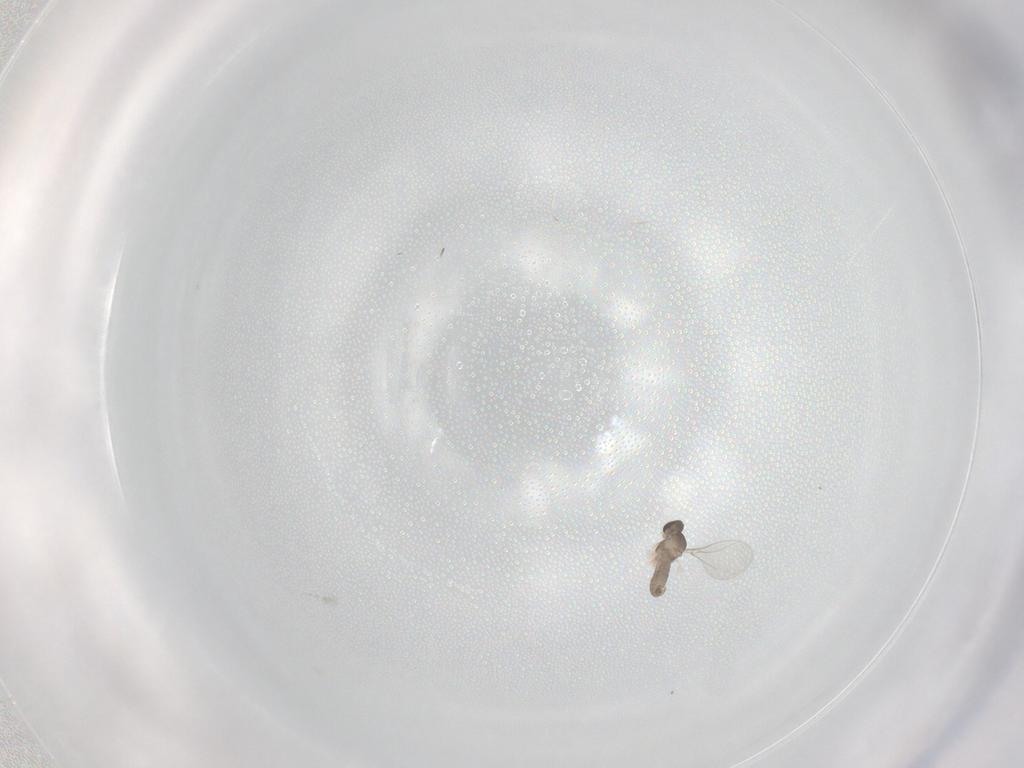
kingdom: Animalia
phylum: Arthropoda
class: Insecta
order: Diptera
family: Cecidomyiidae
